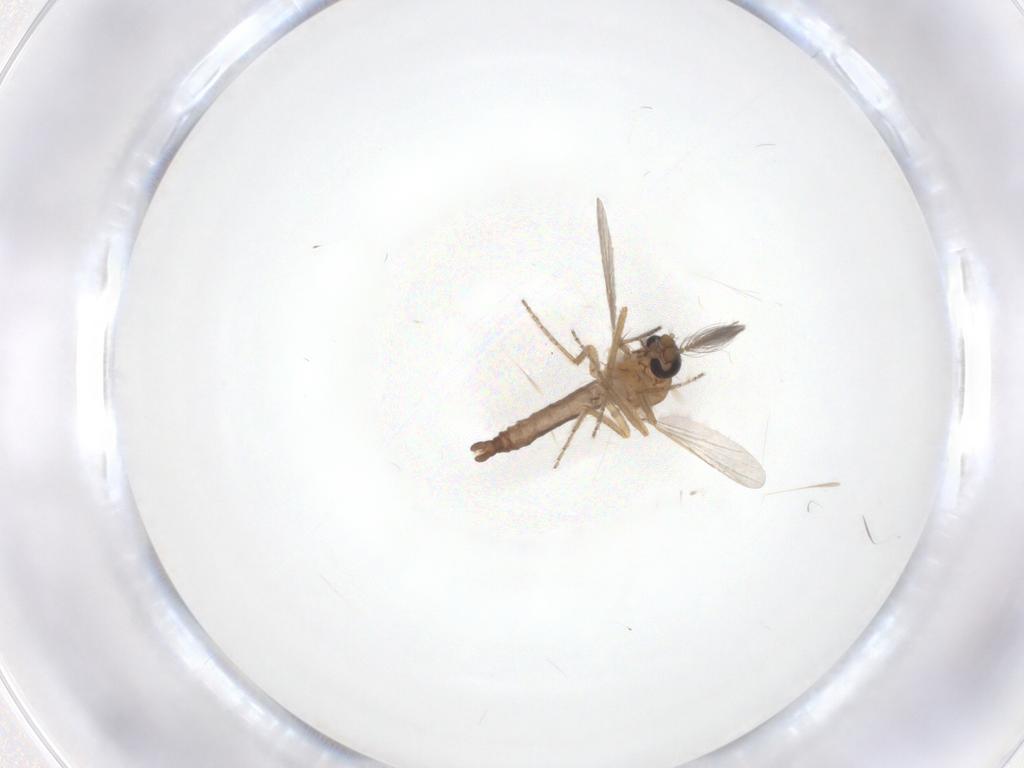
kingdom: Animalia
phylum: Arthropoda
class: Insecta
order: Diptera
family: Ceratopogonidae
